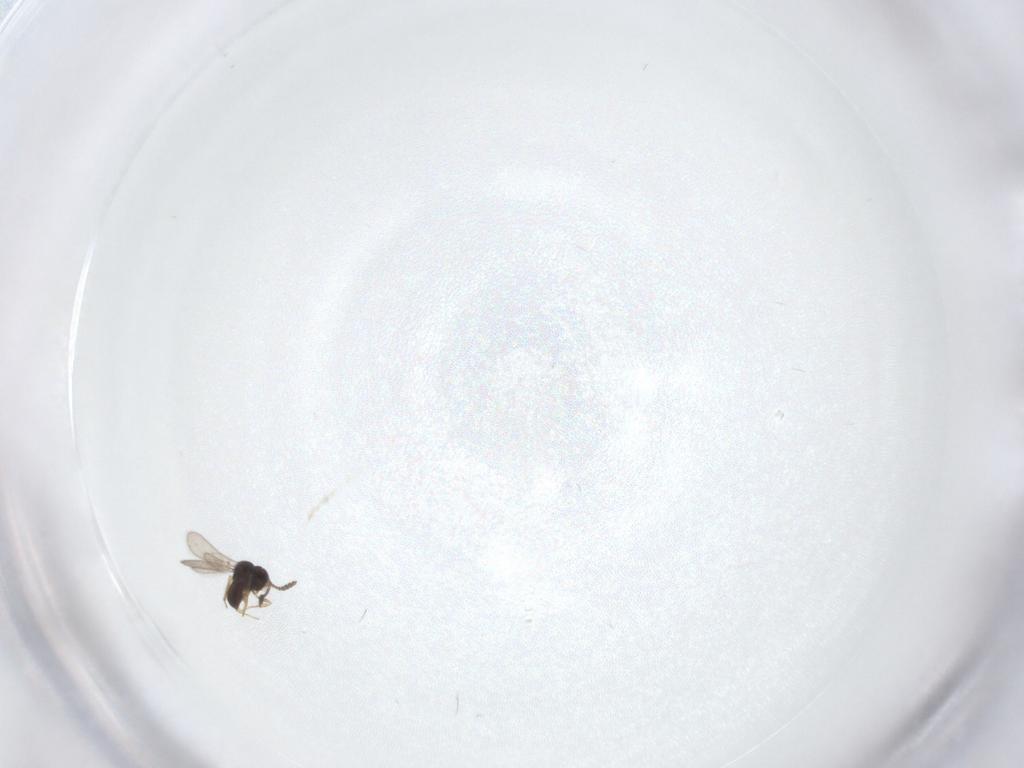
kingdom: Animalia
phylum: Arthropoda
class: Insecta
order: Hymenoptera
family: Scelionidae
